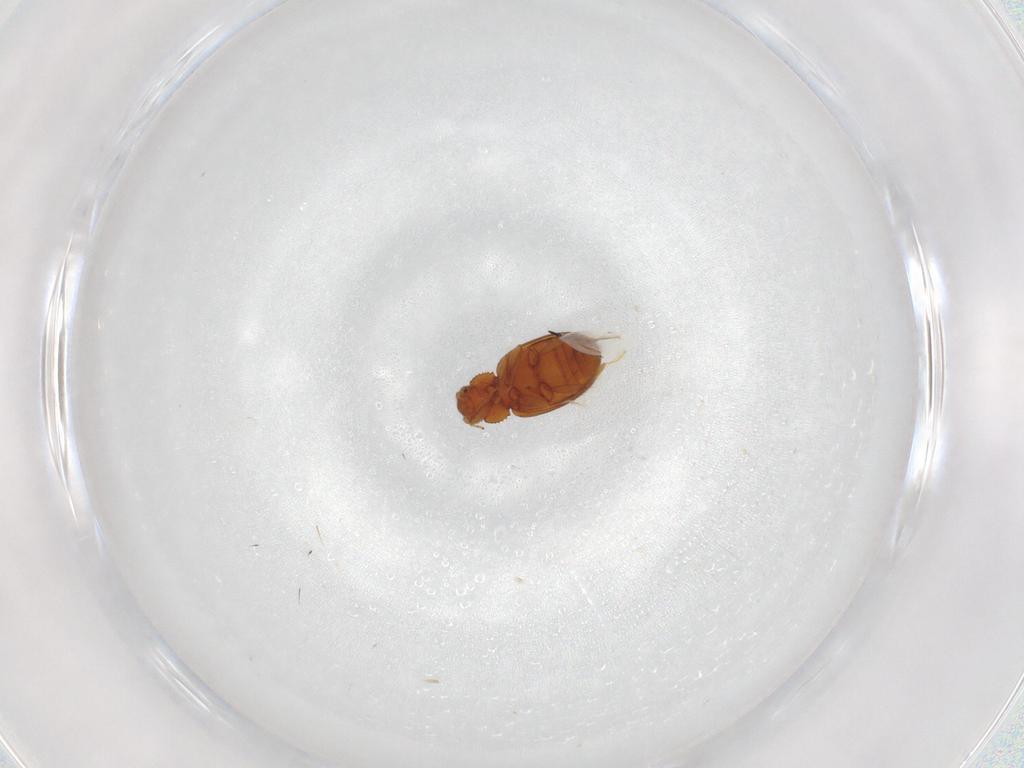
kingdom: Animalia
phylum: Arthropoda
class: Insecta
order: Coleoptera
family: Latridiidae
